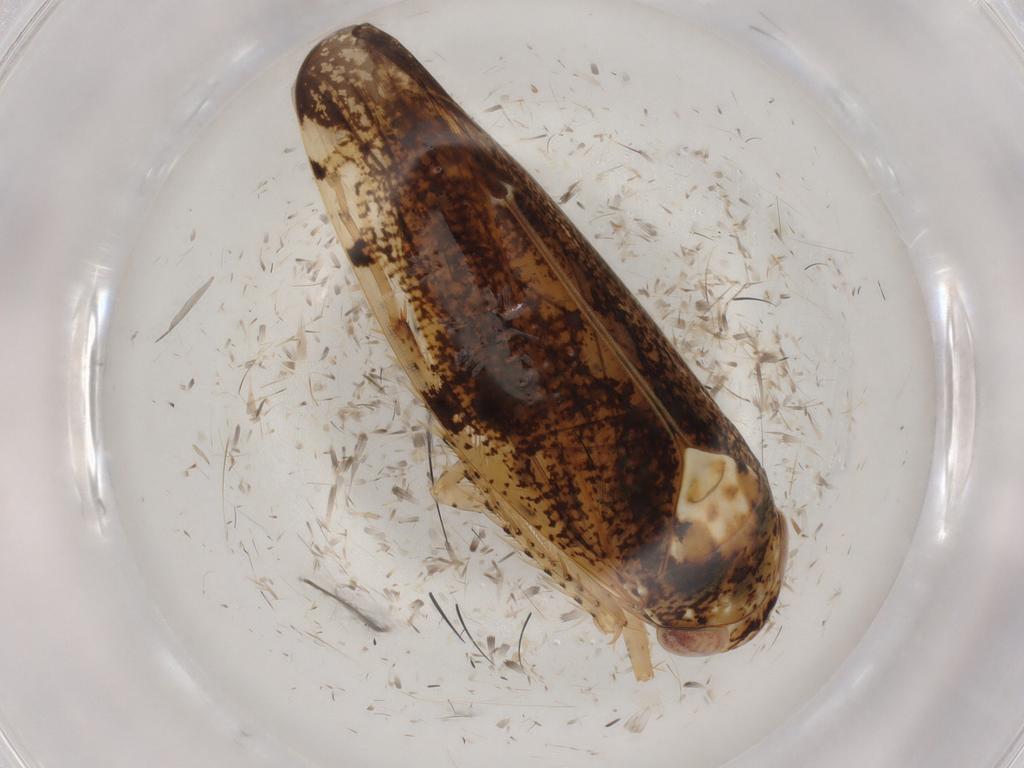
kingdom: Animalia
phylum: Arthropoda
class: Insecta
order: Hemiptera
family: Cicadellidae
